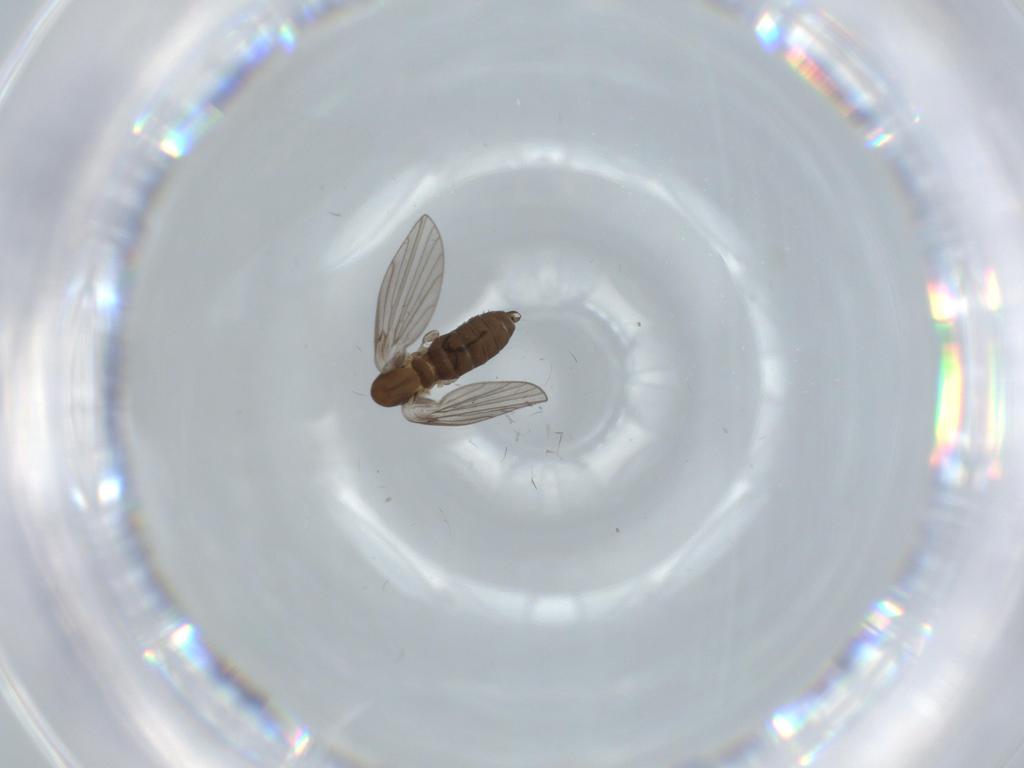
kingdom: Animalia
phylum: Arthropoda
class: Insecta
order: Diptera
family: Psychodidae
